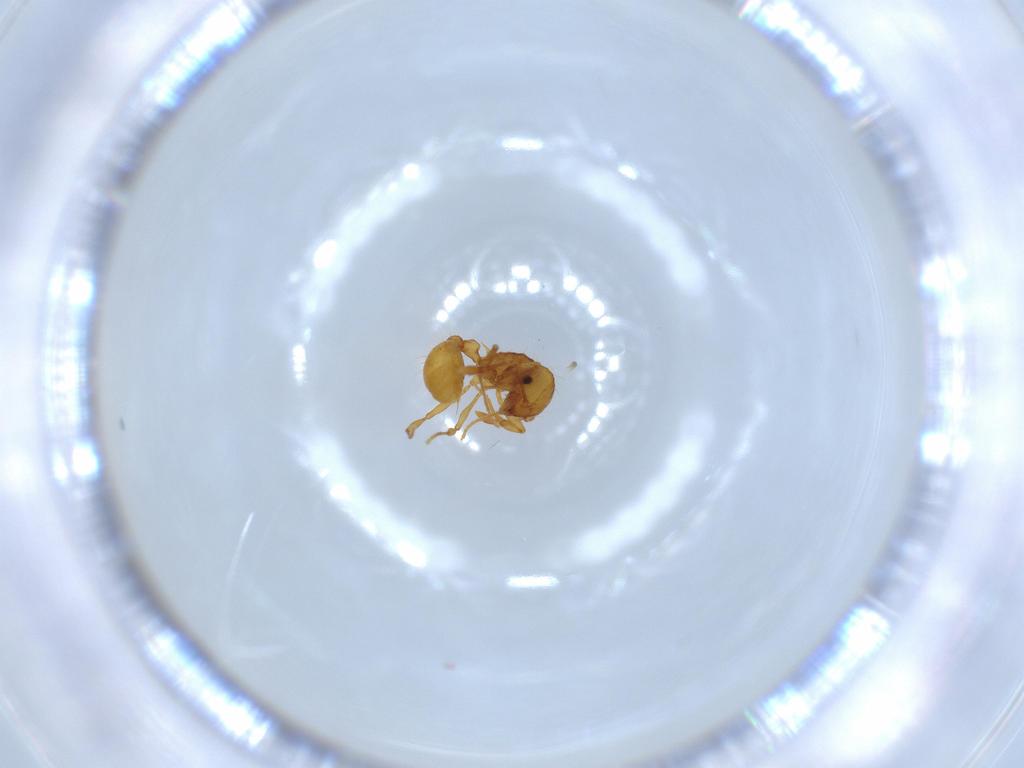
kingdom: Animalia
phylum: Arthropoda
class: Insecta
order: Hymenoptera
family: Formicidae
